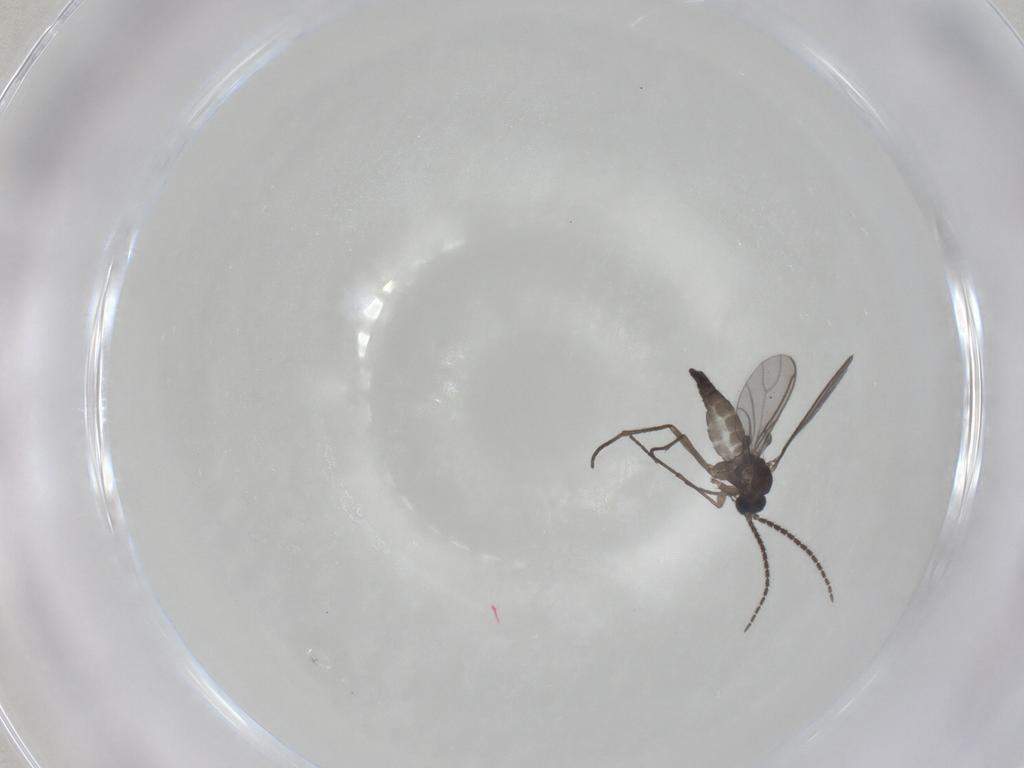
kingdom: Animalia
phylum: Arthropoda
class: Insecta
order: Diptera
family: Sciaridae
